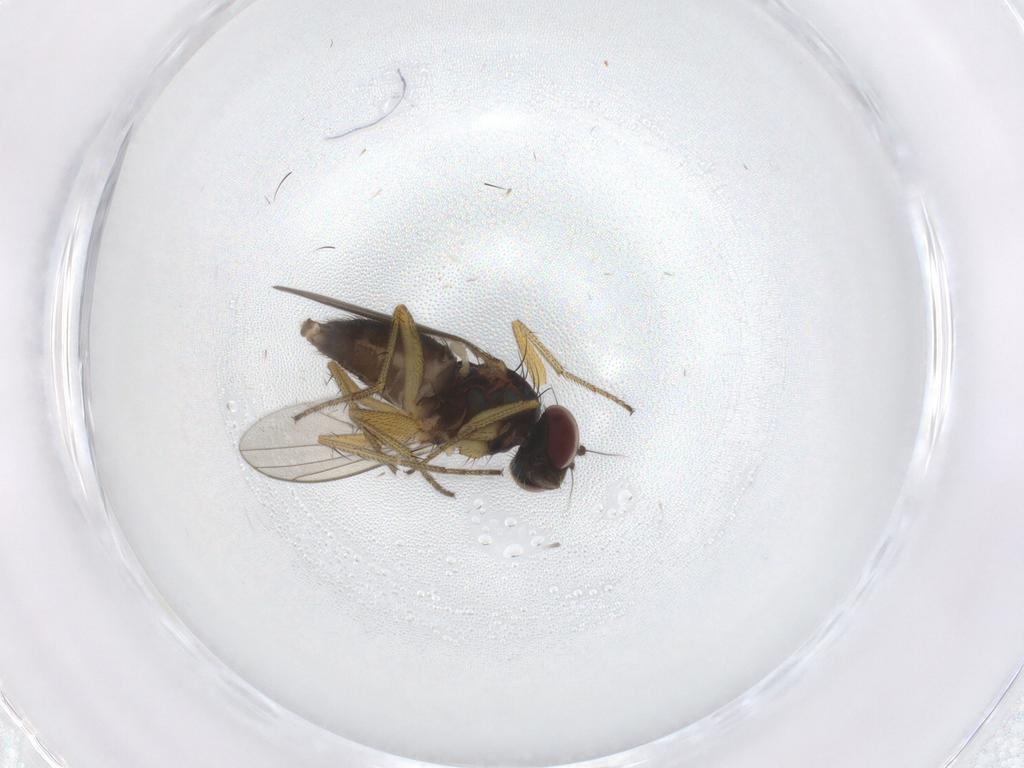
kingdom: Animalia
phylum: Arthropoda
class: Insecta
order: Diptera
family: Dolichopodidae
